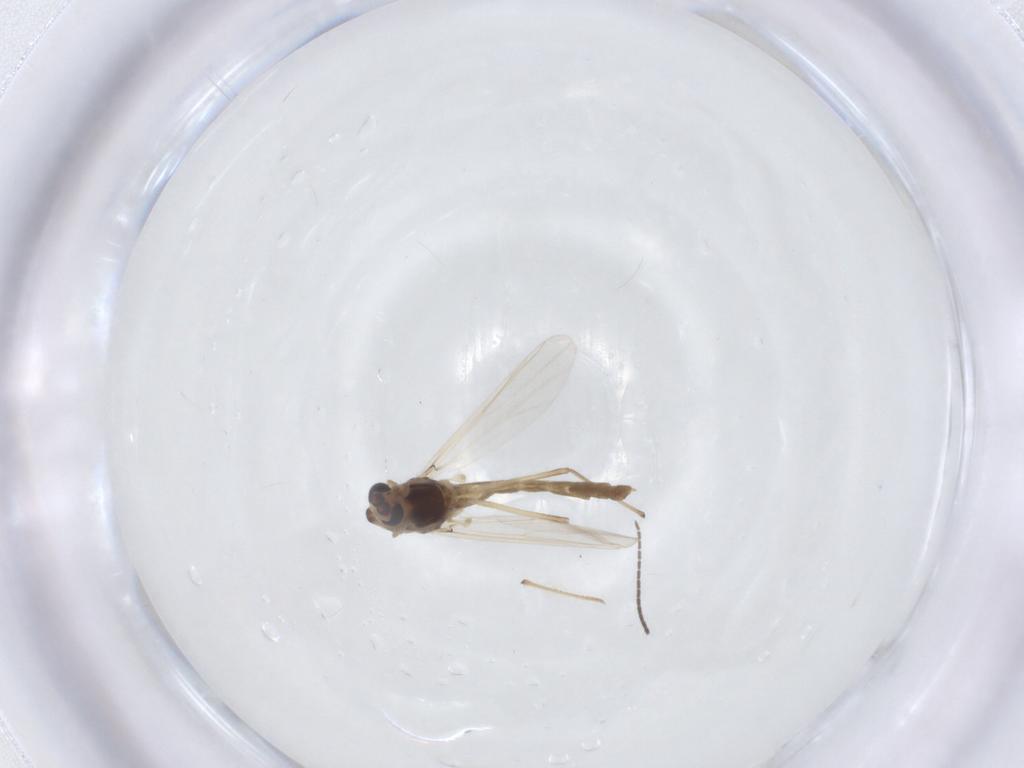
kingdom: Animalia
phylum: Arthropoda
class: Insecta
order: Diptera
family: Chironomidae
